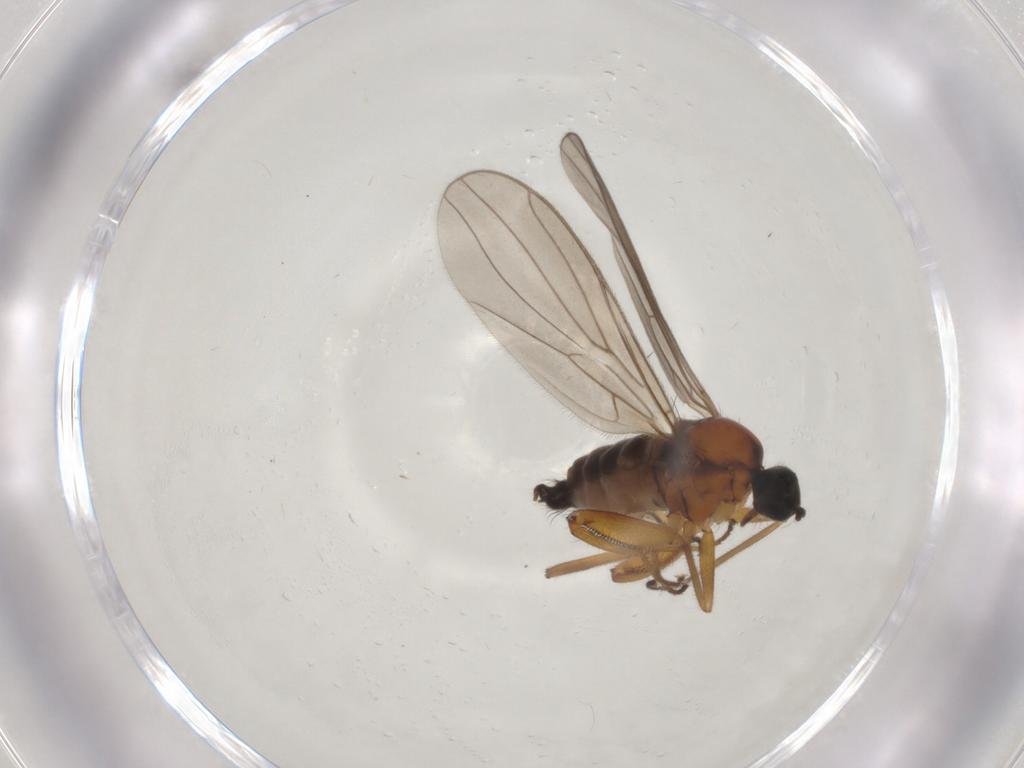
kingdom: Animalia
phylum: Arthropoda
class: Insecta
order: Diptera
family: Hybotidae
